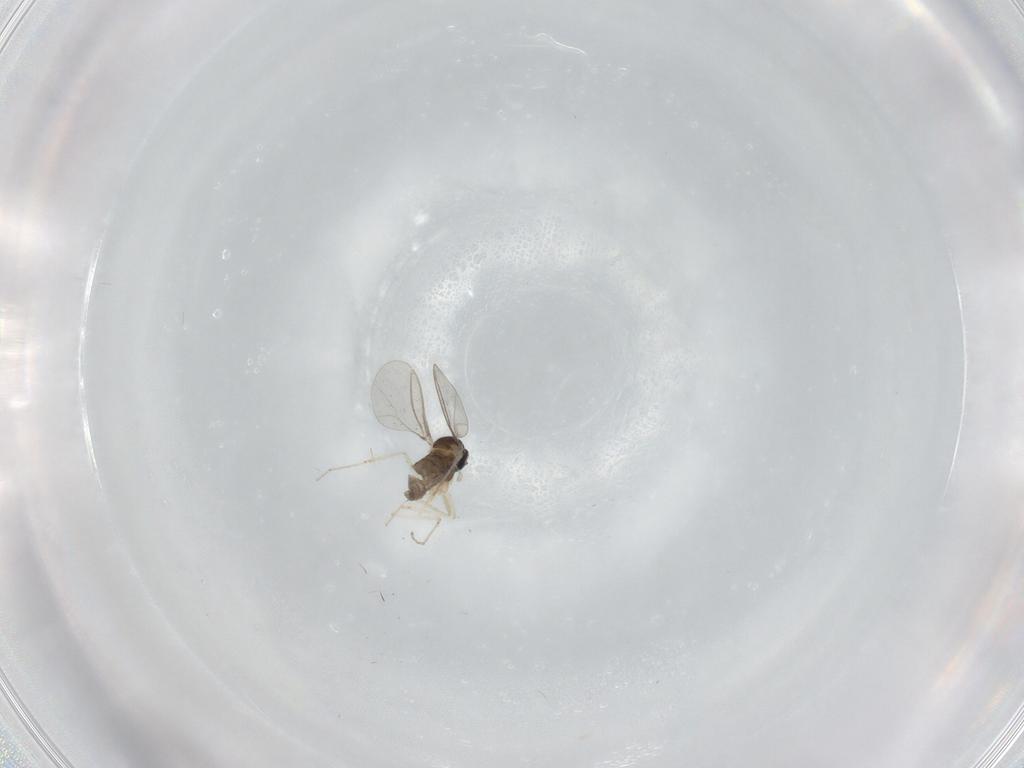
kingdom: Animalia
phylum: Arthropoda
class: Insecta
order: Diptera
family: Cecidomyiidae
